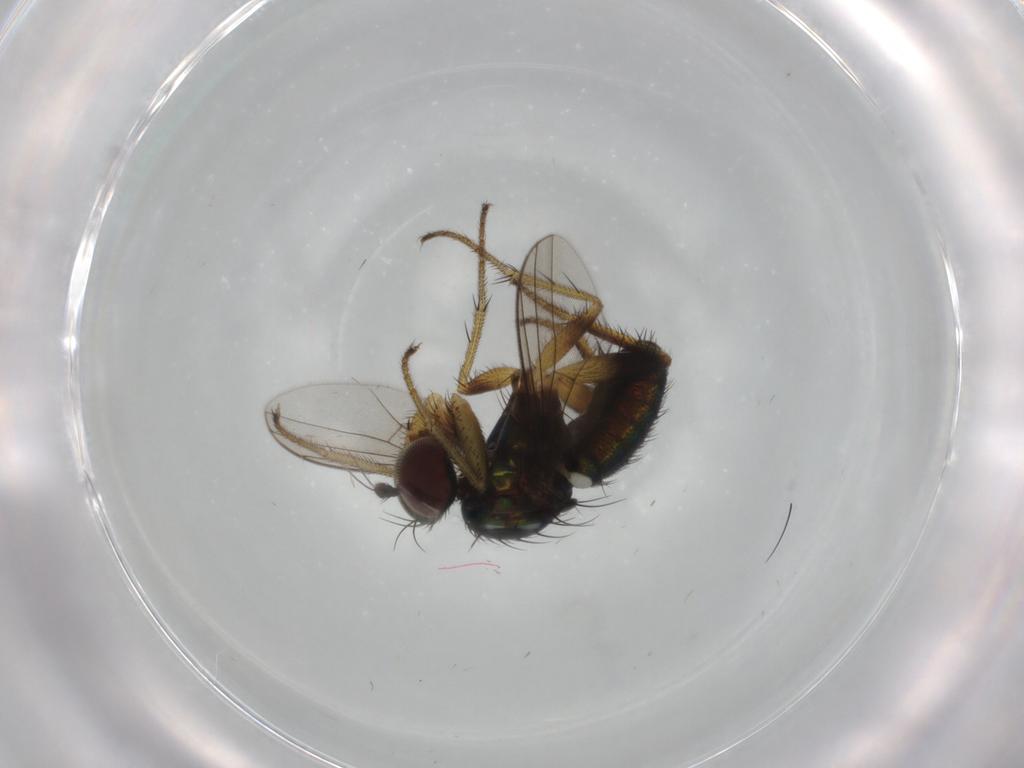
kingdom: Animalia
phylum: Arthropoda
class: Insecta
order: Diptera
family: Dolichopodidae
